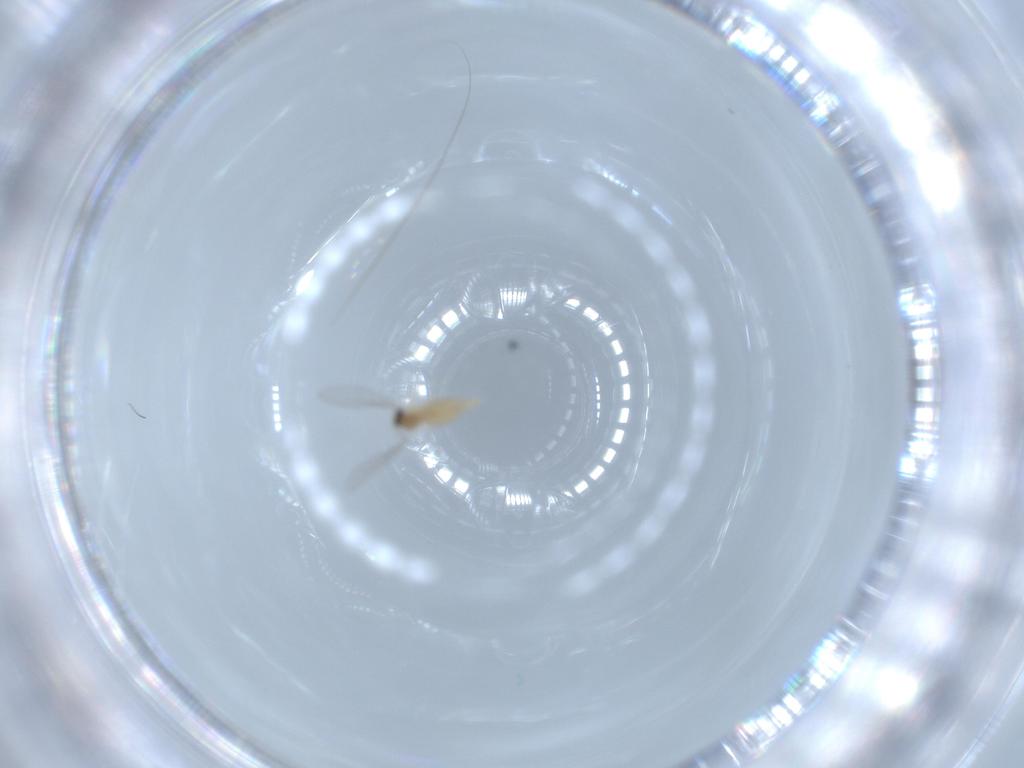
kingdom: Animalia
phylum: Arthropoda
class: Insecta
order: Diptera
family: Cecidomyiidae
